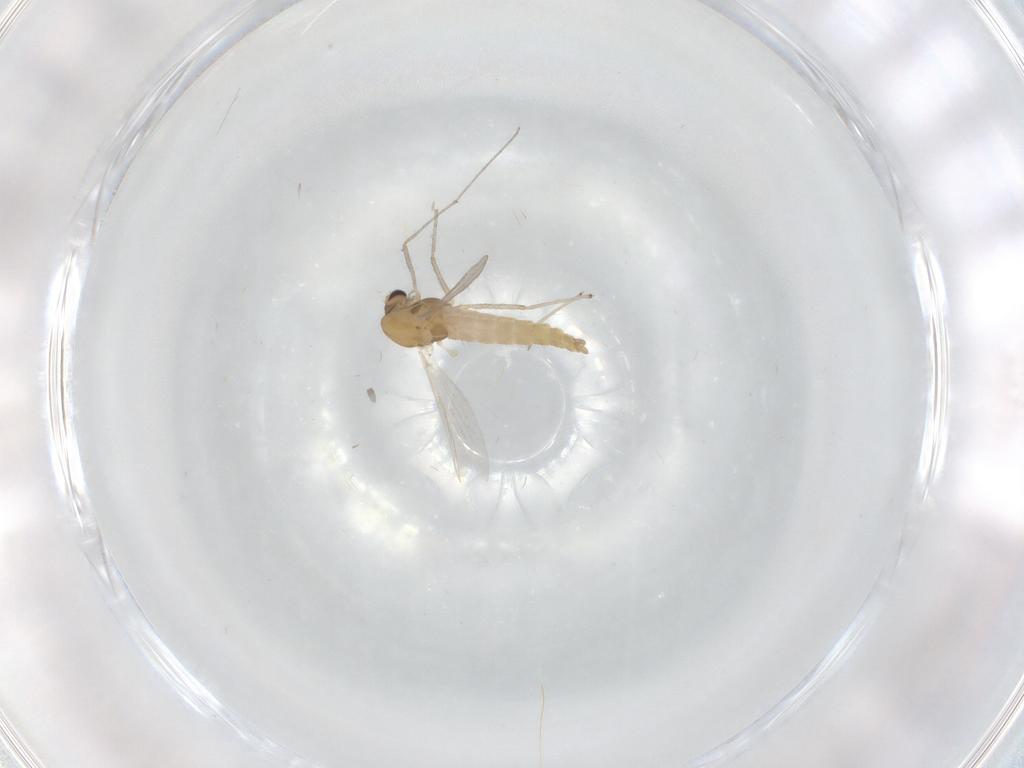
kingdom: Animalia
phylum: Arthropoda
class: Insecta
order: Diptera
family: Chironomidae
